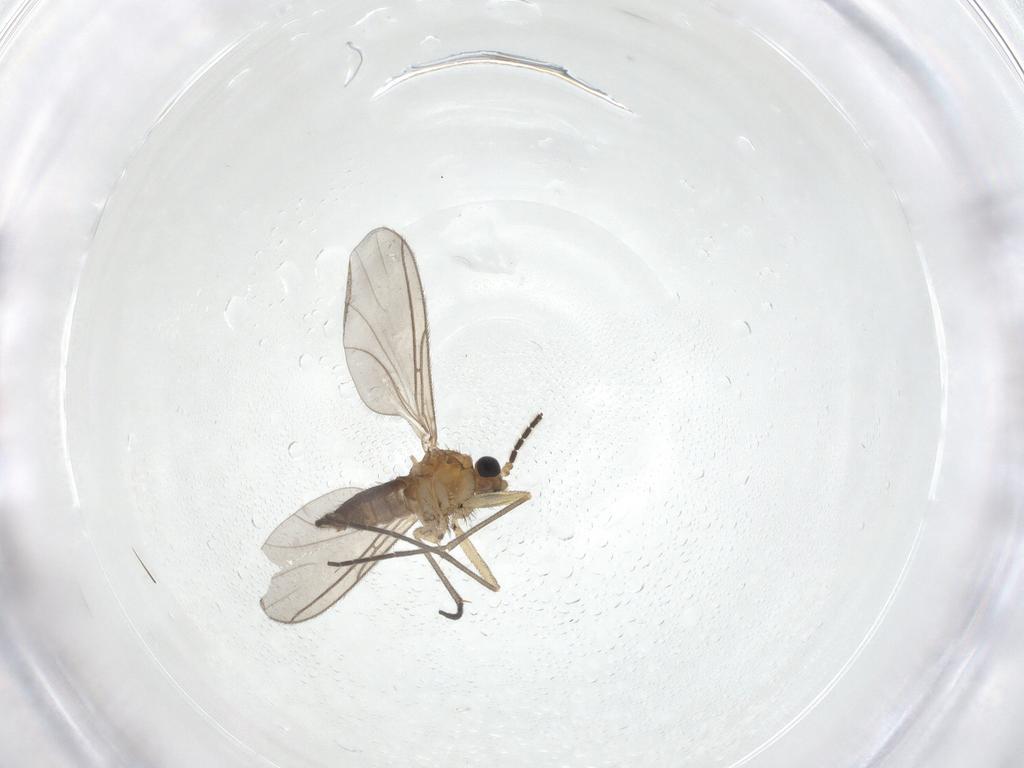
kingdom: Animalia
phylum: Arthropoda
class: Insecta
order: Diptera
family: Sciaridae
